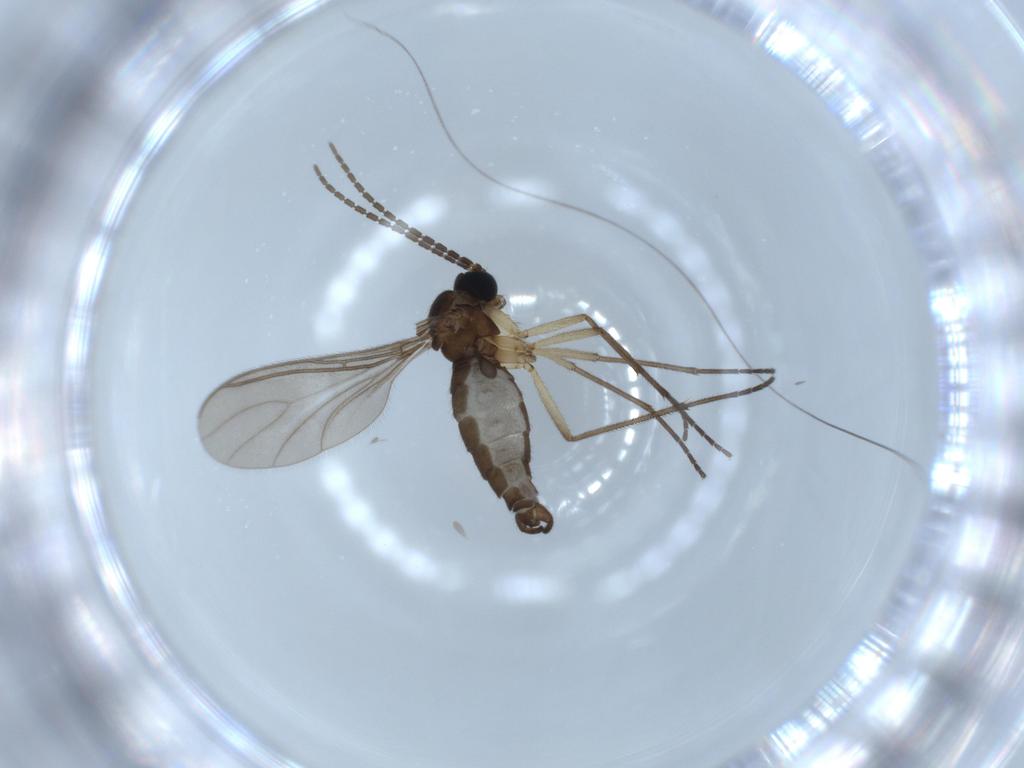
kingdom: Animalia
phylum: Arthropoda
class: Insecta
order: Diptera
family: Sciaridae
